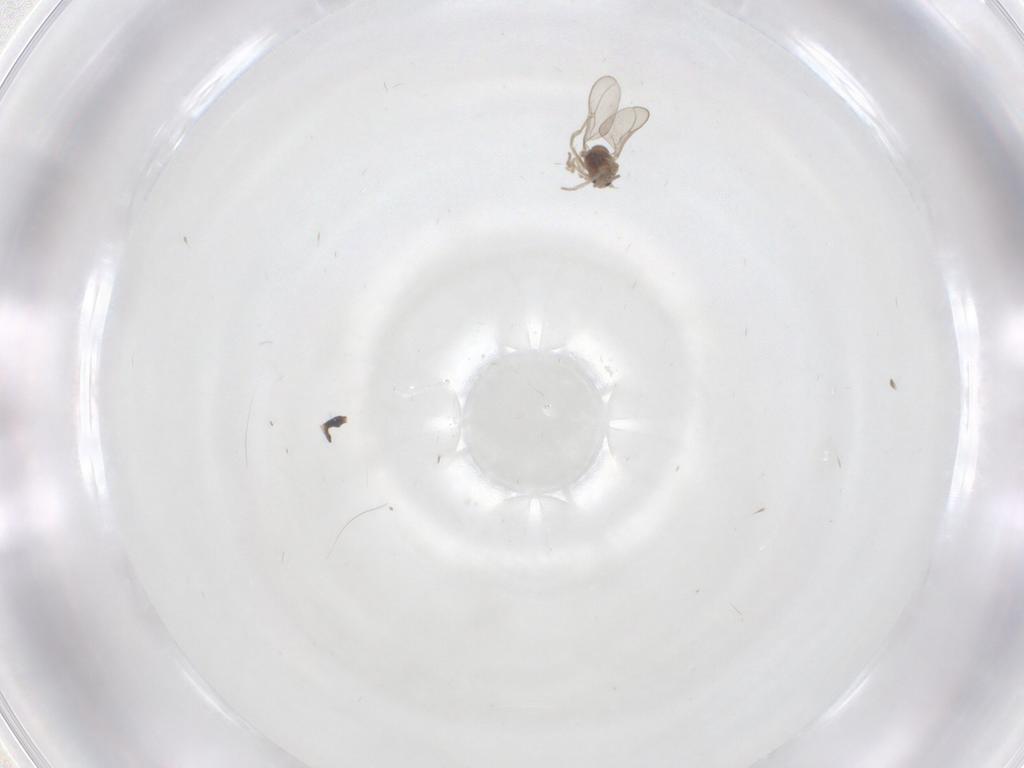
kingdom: Animalia
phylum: Arthropoda
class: Insecta
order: Diptera
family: Cecidomyiidae
